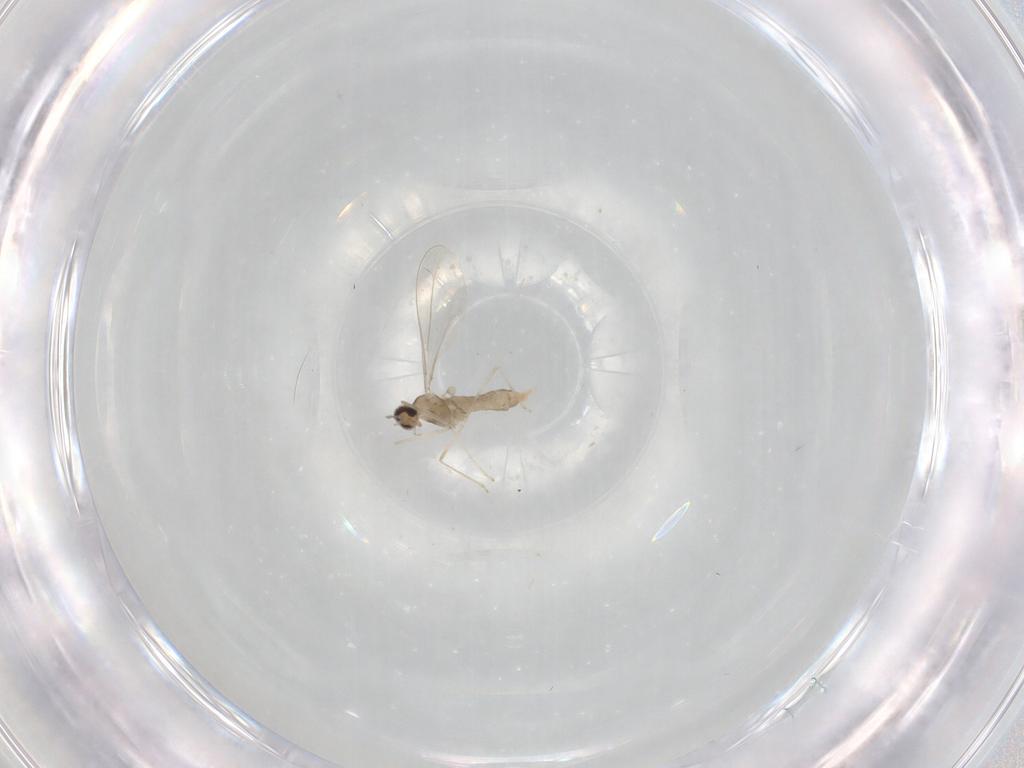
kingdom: Animalia
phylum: Arthropoda
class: Insecta
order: Diptera
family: Cecidomyiidae
